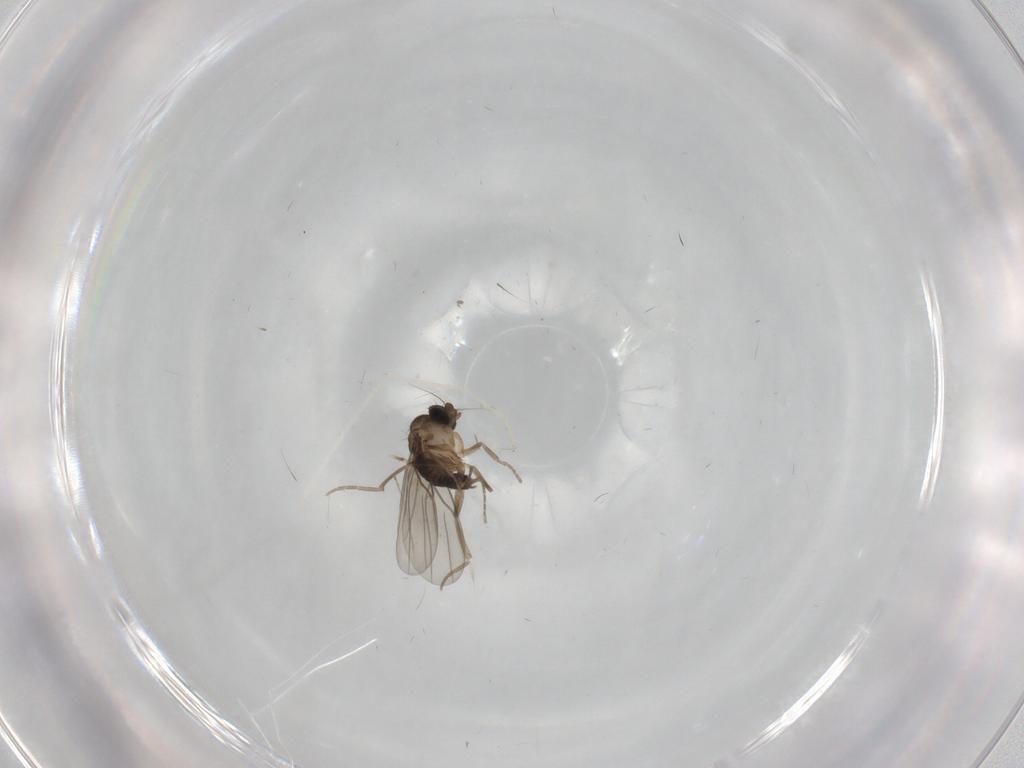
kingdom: Animalia
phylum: Arthropoda
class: Insecta
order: Diptera
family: Phoridae
